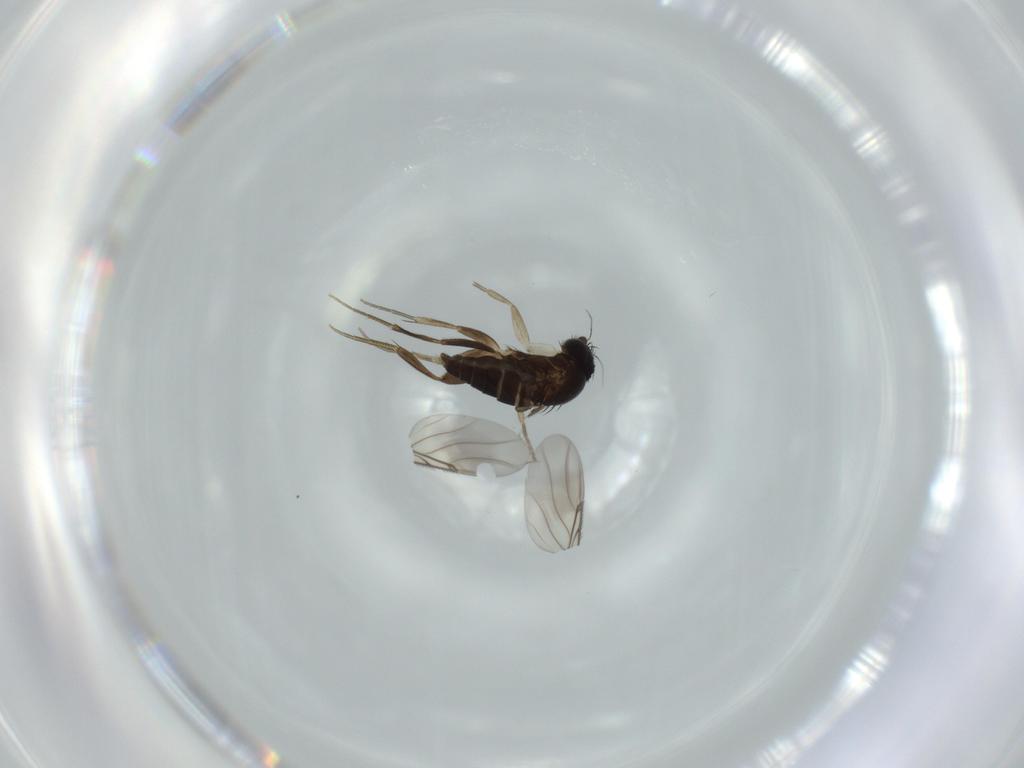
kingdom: Animalia
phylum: Arthropoda
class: Insecta
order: Diptera
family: Phoridae
